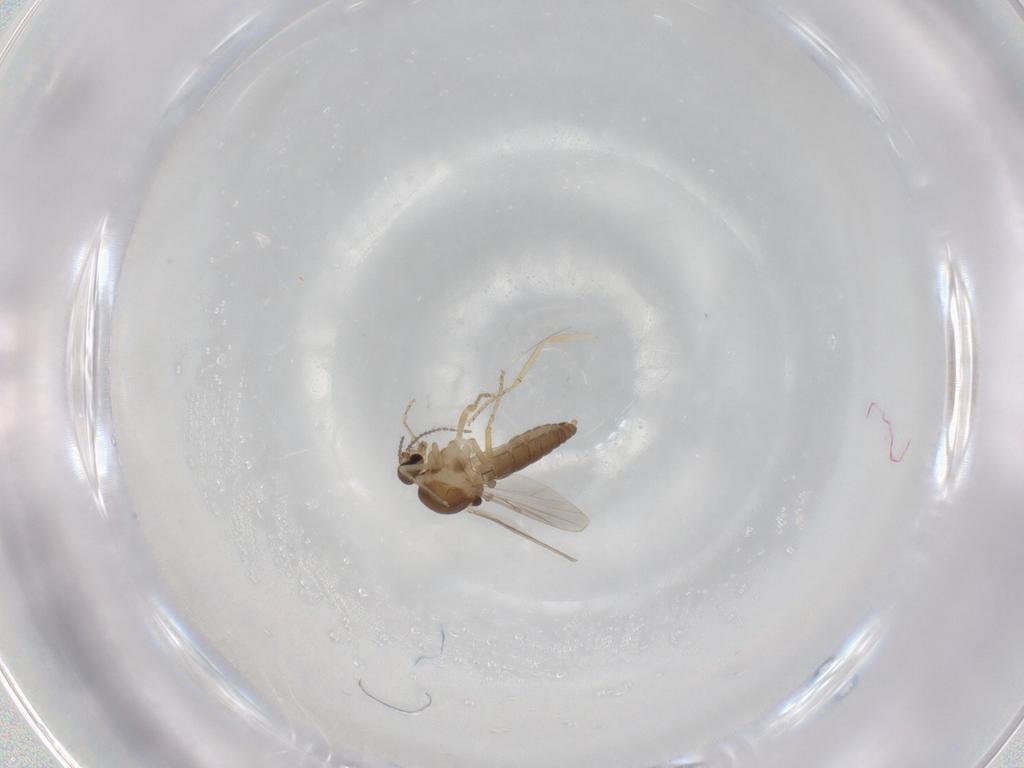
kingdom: Animalia
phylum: Arthropoda
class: Insecta
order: Diptera
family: Ceratopogonidae
